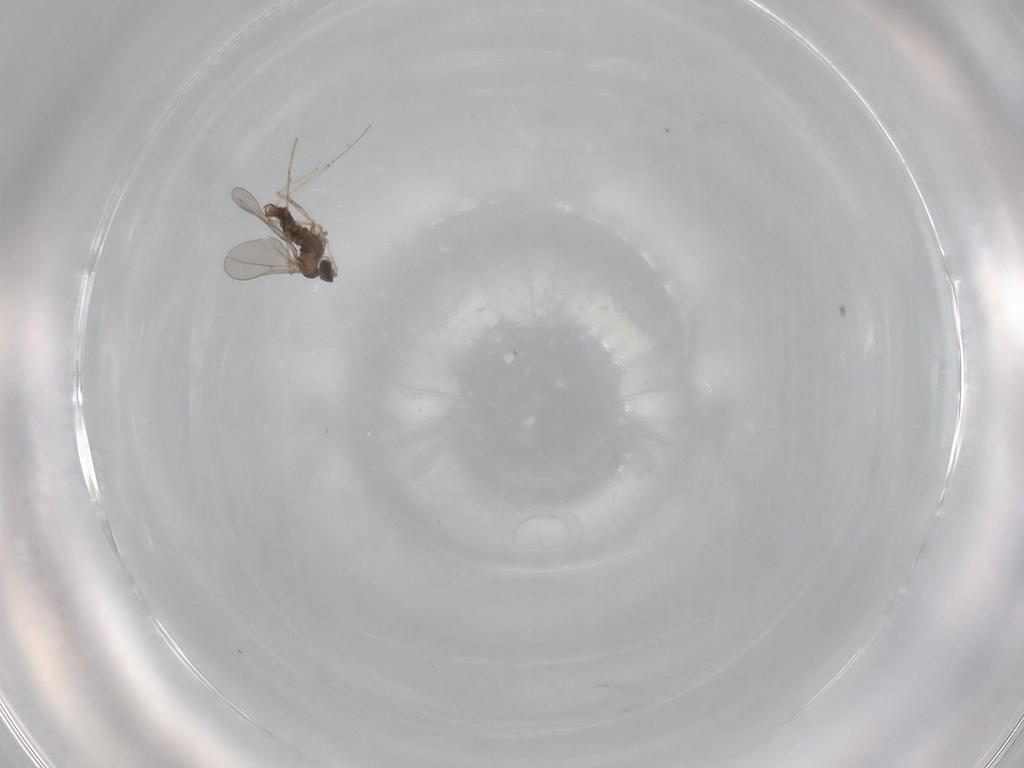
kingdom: Animalia
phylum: Arthropoda
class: Insecta
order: Diptera
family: Cecidomyiidae
